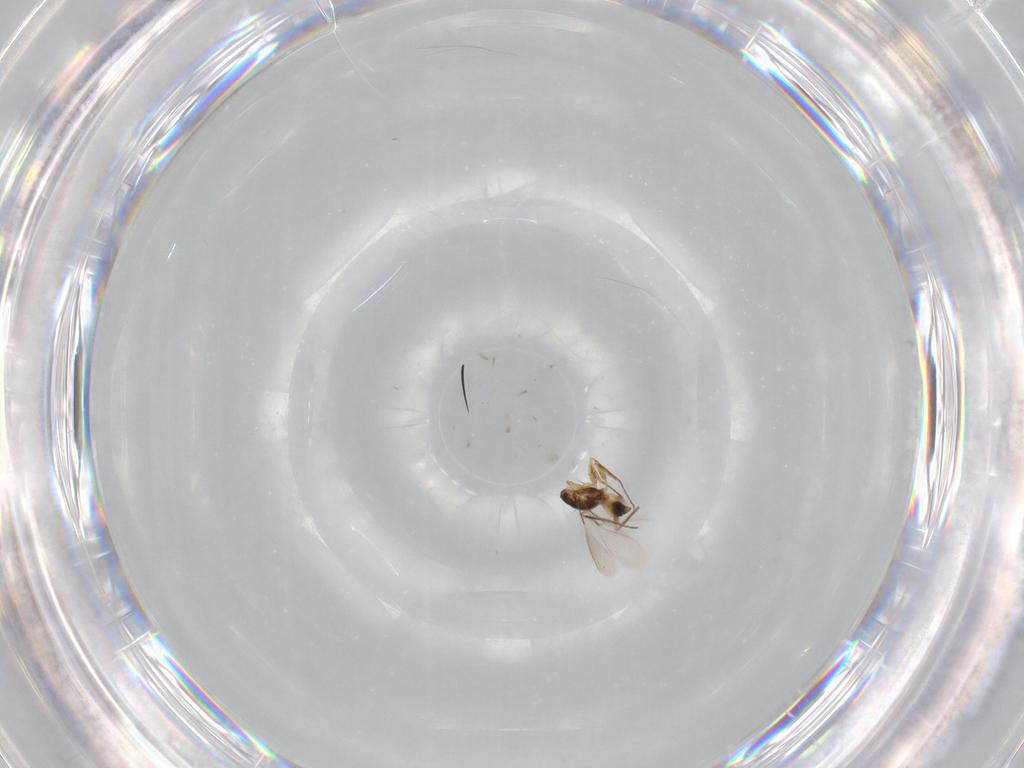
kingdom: Animalia
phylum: Arthropoda
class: Insecta
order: Hymenoptera
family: Mymaridae
